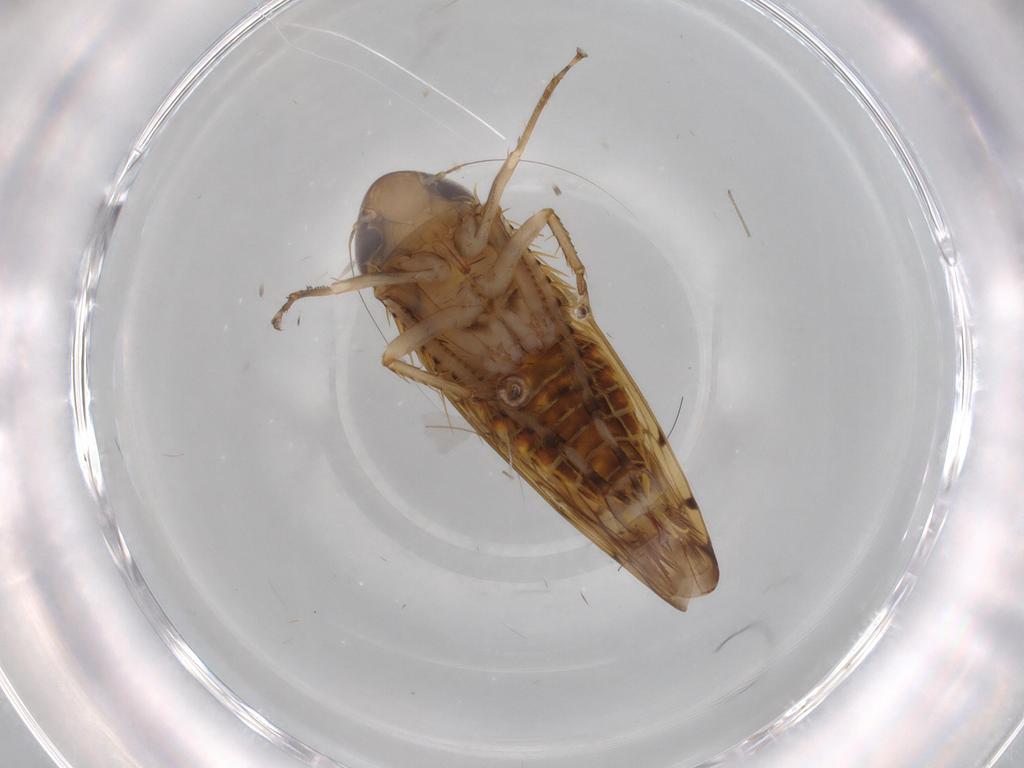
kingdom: Animalia
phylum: Arthropoda
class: Insecta
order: Hemiptera
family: Cicadellidae
